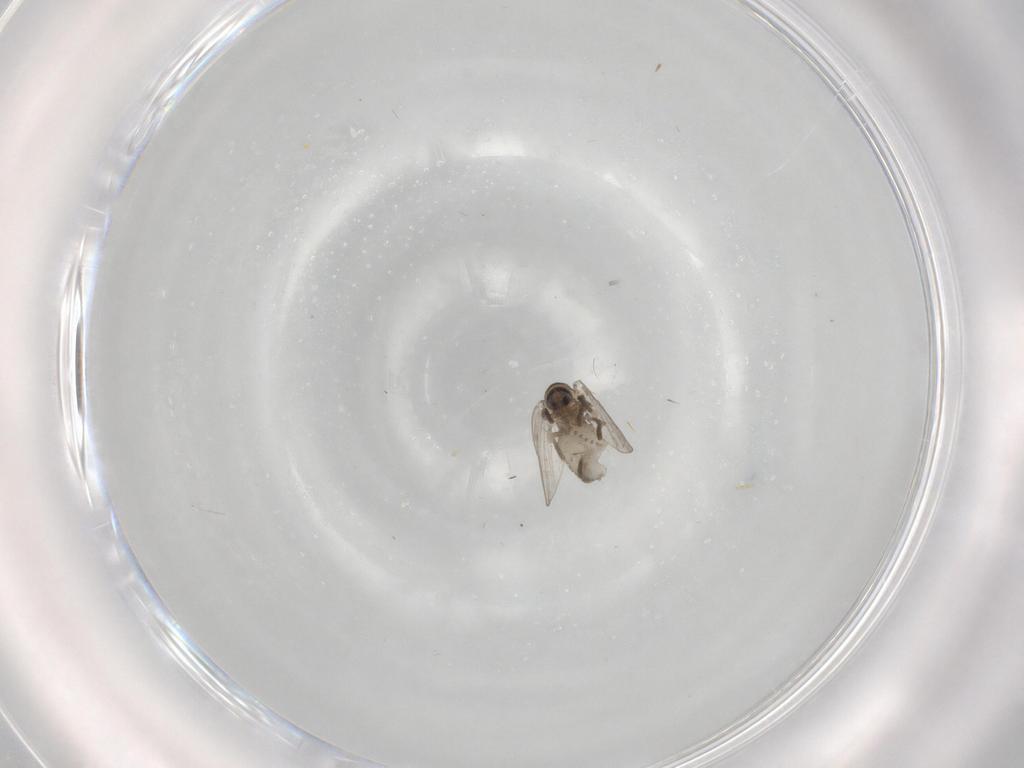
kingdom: Animalia
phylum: Arthropoda
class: Insecta
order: Diptera
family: Psychodidae
